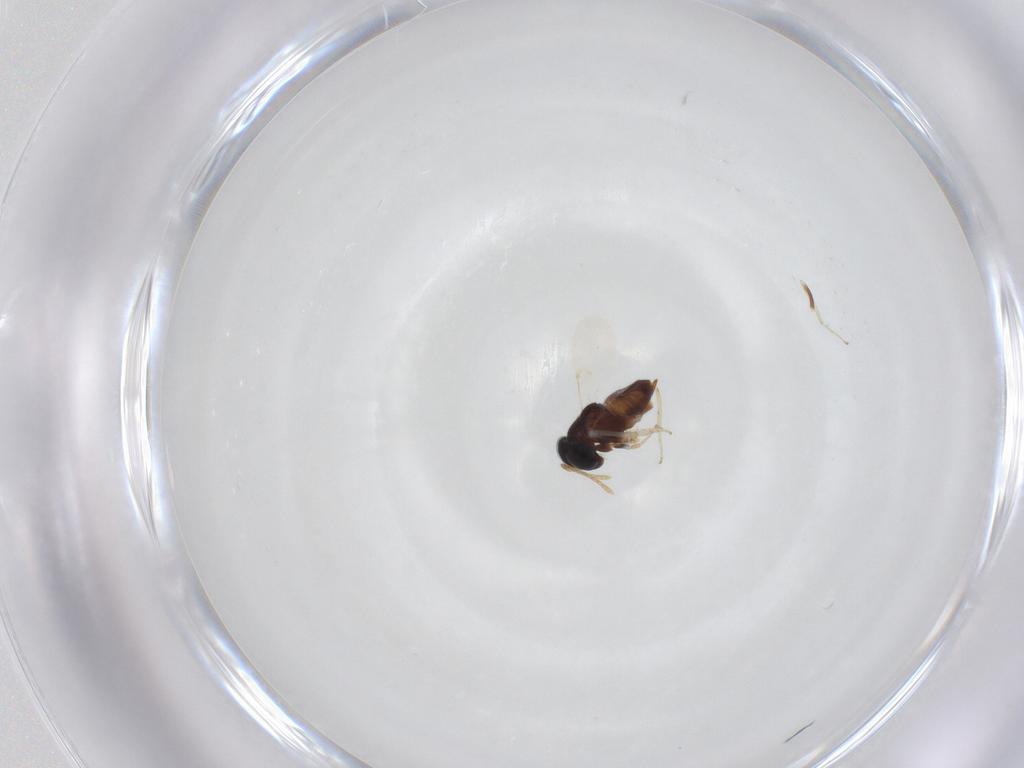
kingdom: Animalia
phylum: Arthropoda
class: Insecta
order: Hymenoptera
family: Encyrtidae
